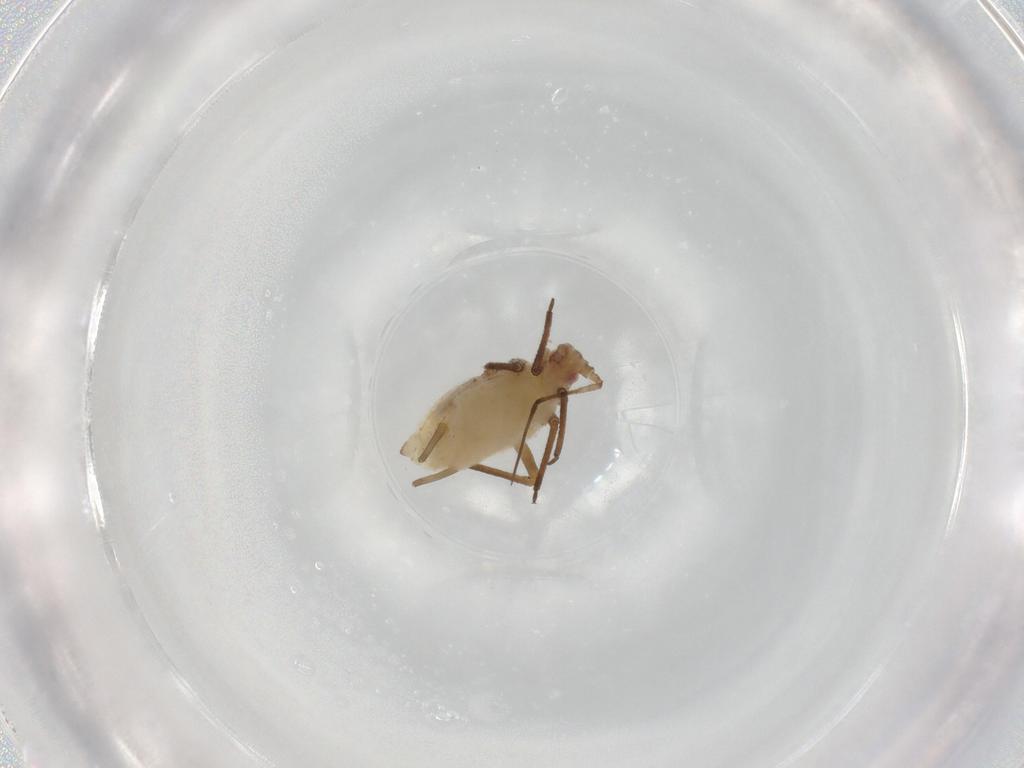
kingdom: Animalia
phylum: Arthropoda
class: Insecta
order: Hemiptera
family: Aphididae
